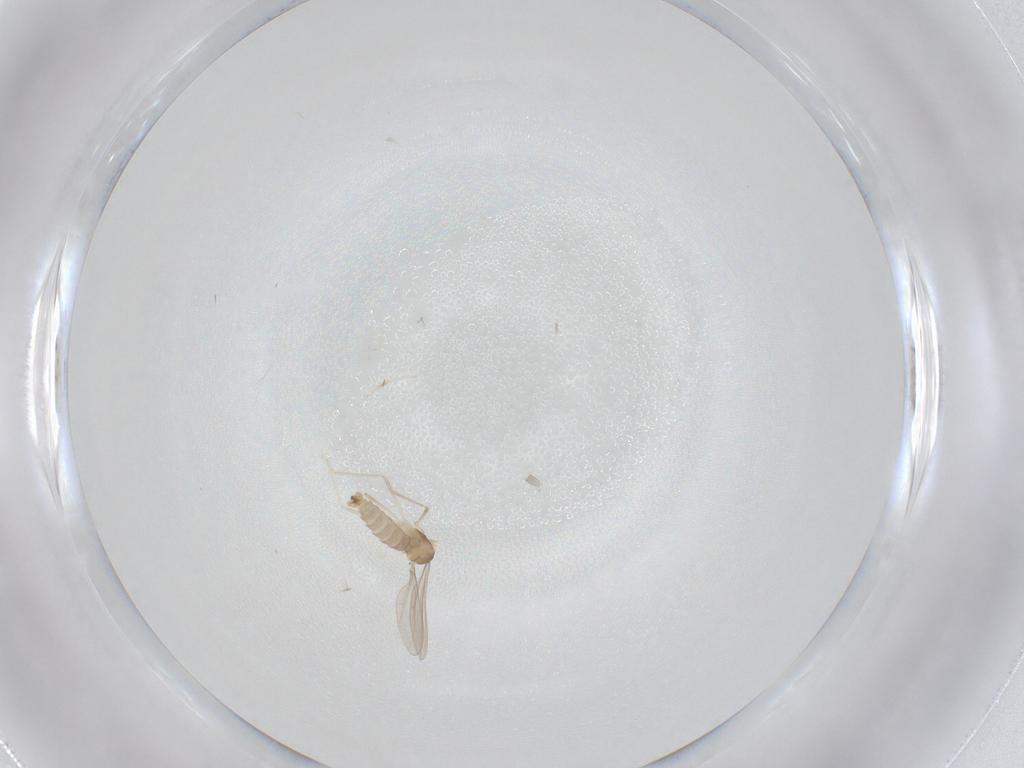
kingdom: Animalia
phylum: Arthropoda
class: Insecta
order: Diptera
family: Cecidomyiidae
